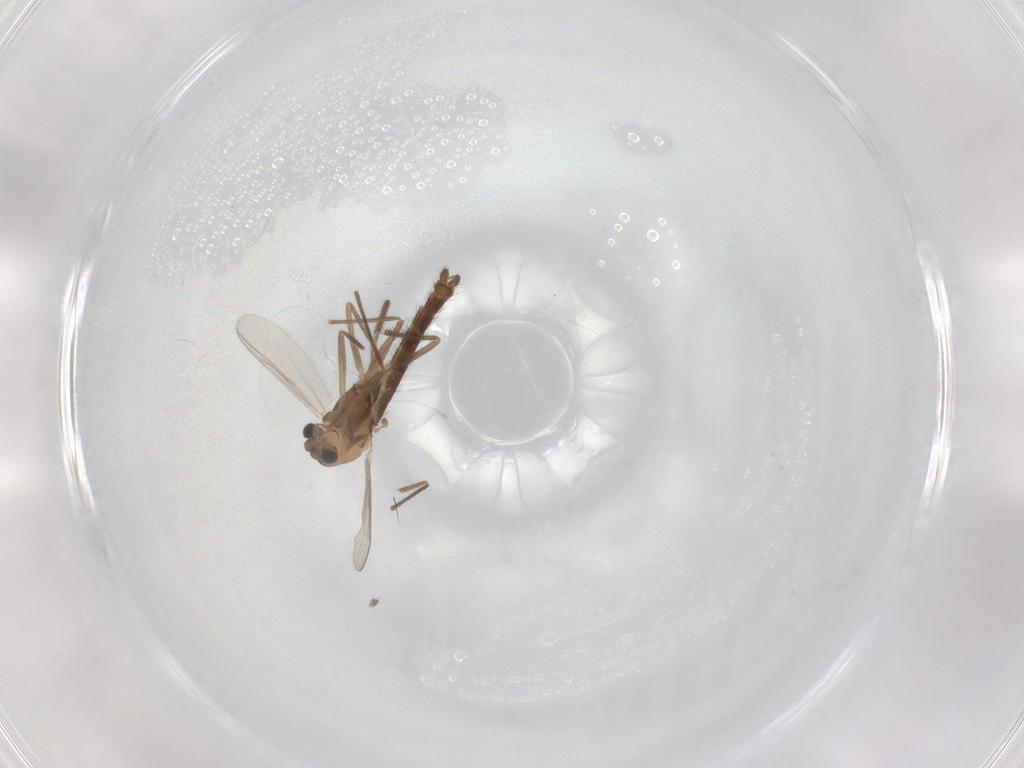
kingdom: Animalia
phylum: Arthropoda
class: Insecta
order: Diptera
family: Chironomidae
